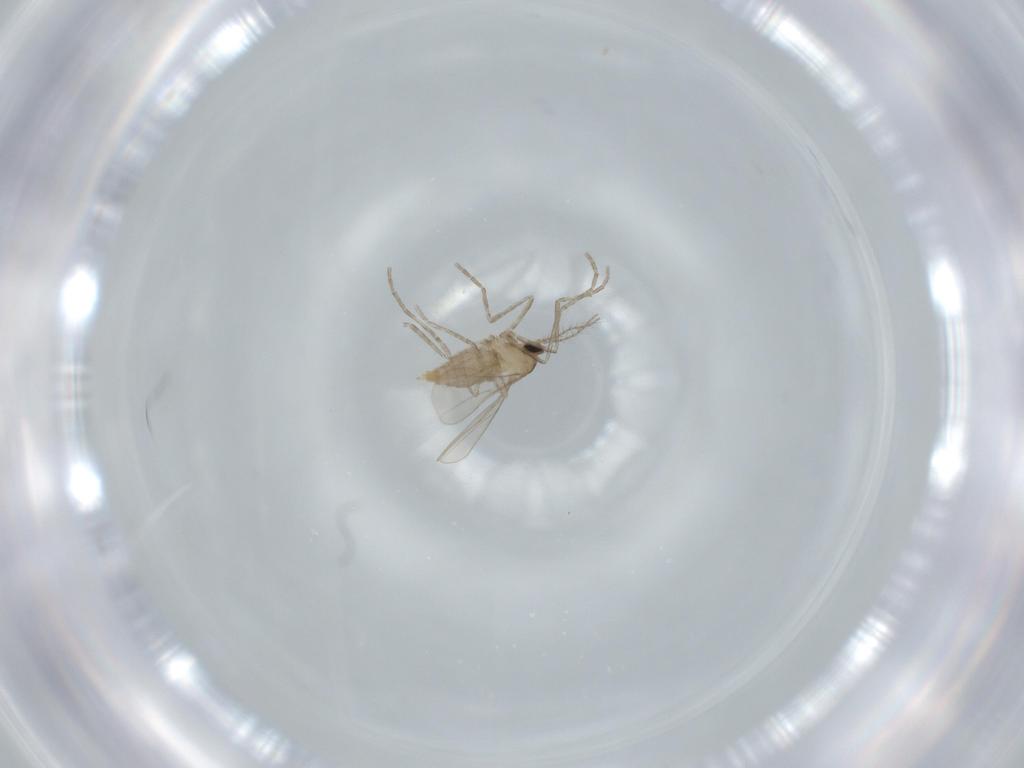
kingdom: Animalia
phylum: Arthropoda
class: Insecta
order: Diptera
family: Cecidomyiidae
